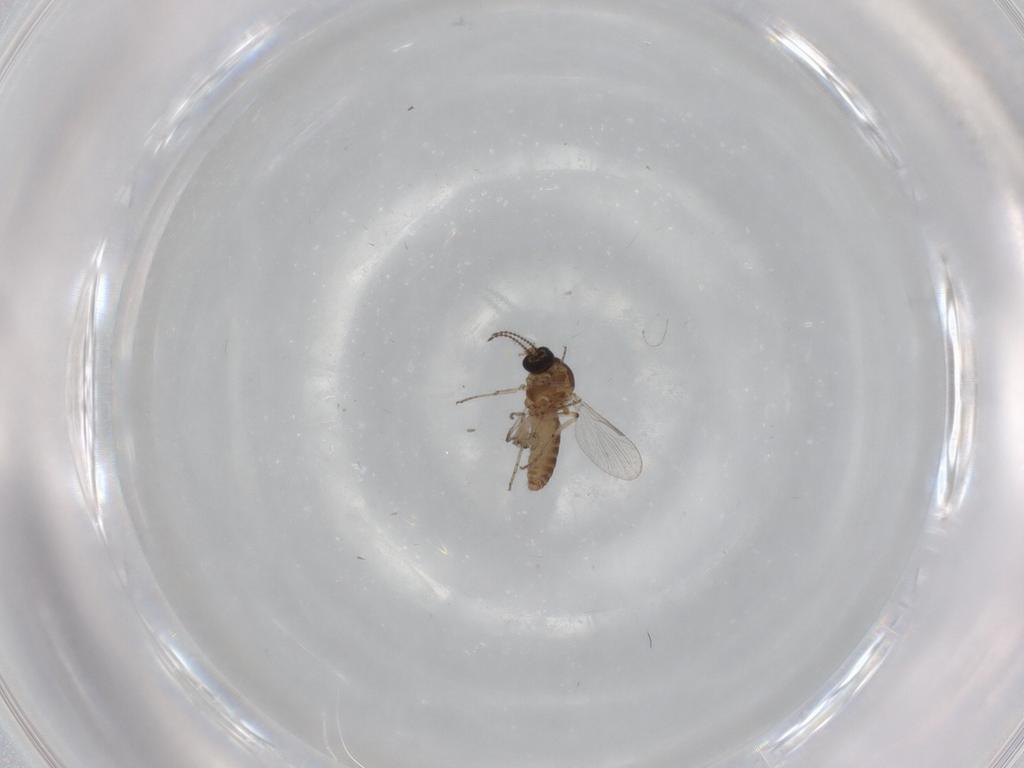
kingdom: Animalia
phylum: Arthropoda
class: Insecta
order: Diptera
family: Ceratopogonidae
